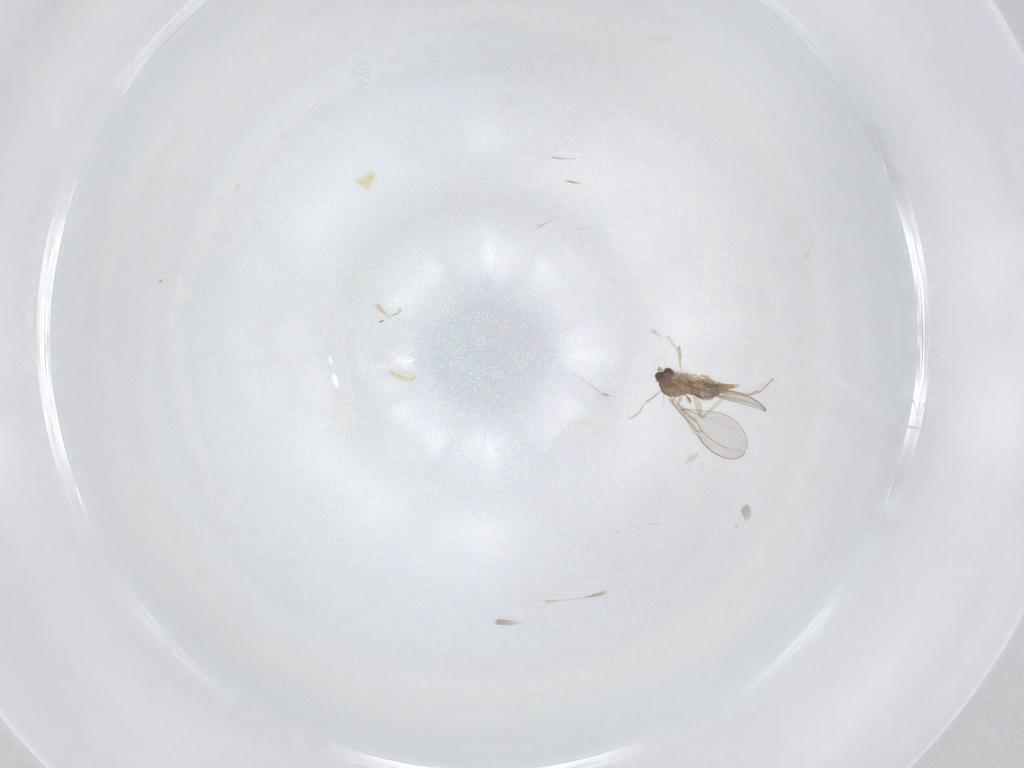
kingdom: Animalia
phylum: Arthropoda
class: Insecta
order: Diptera
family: Cecidomyiidae
